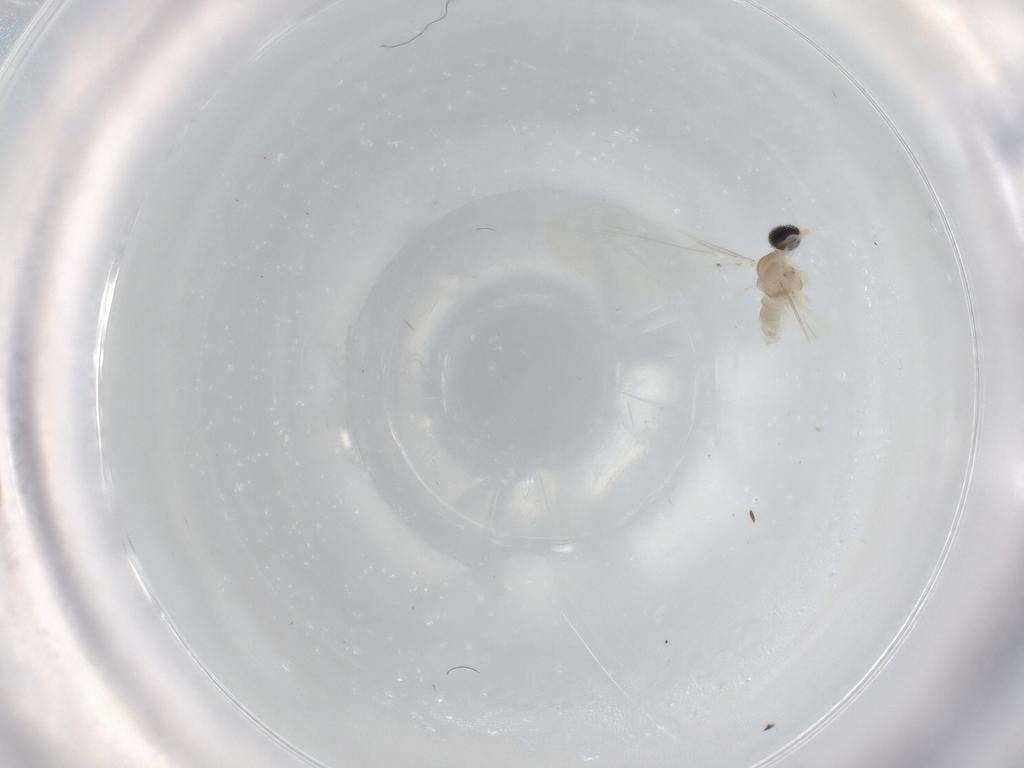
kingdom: Animalia
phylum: Arthropoda
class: Insecta
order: Diptera
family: Cecidomyiidae
